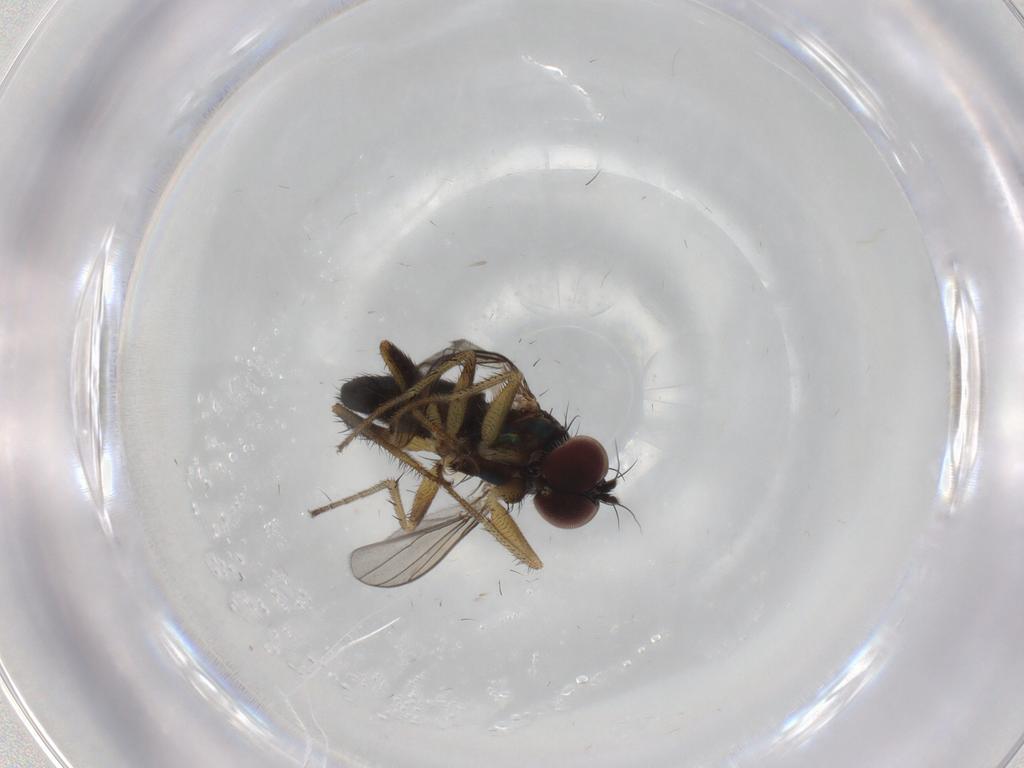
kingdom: Animalia
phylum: Arthropoda
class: Insecta
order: Diptera
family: Dolichopodidae
